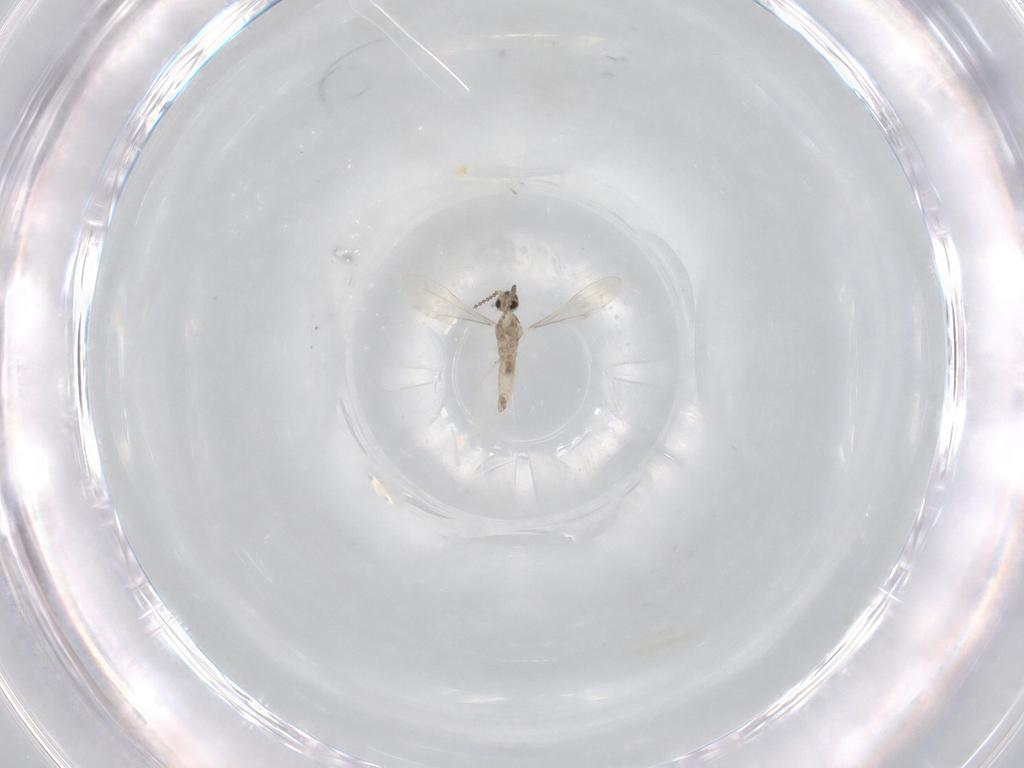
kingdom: Animalia
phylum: Arthropoda
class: Insecta
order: Diptera
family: Cecidomyiidae
